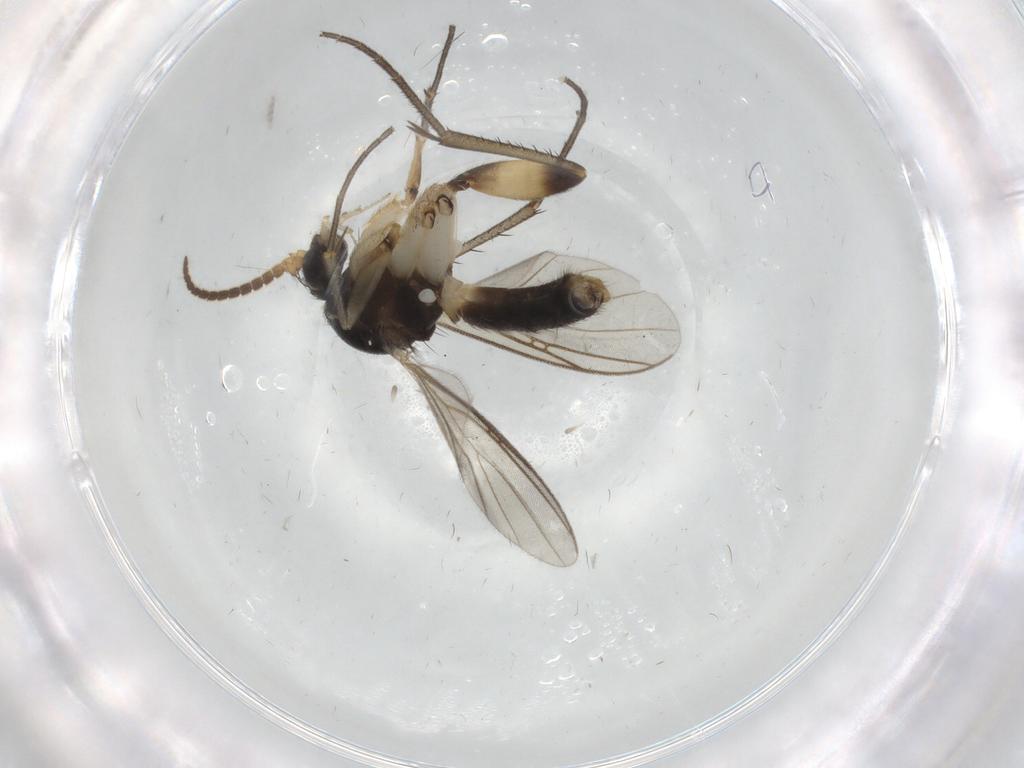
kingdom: Animalia
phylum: Arthropoda
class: Insecta
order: Diptera
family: Mycetophilidae
